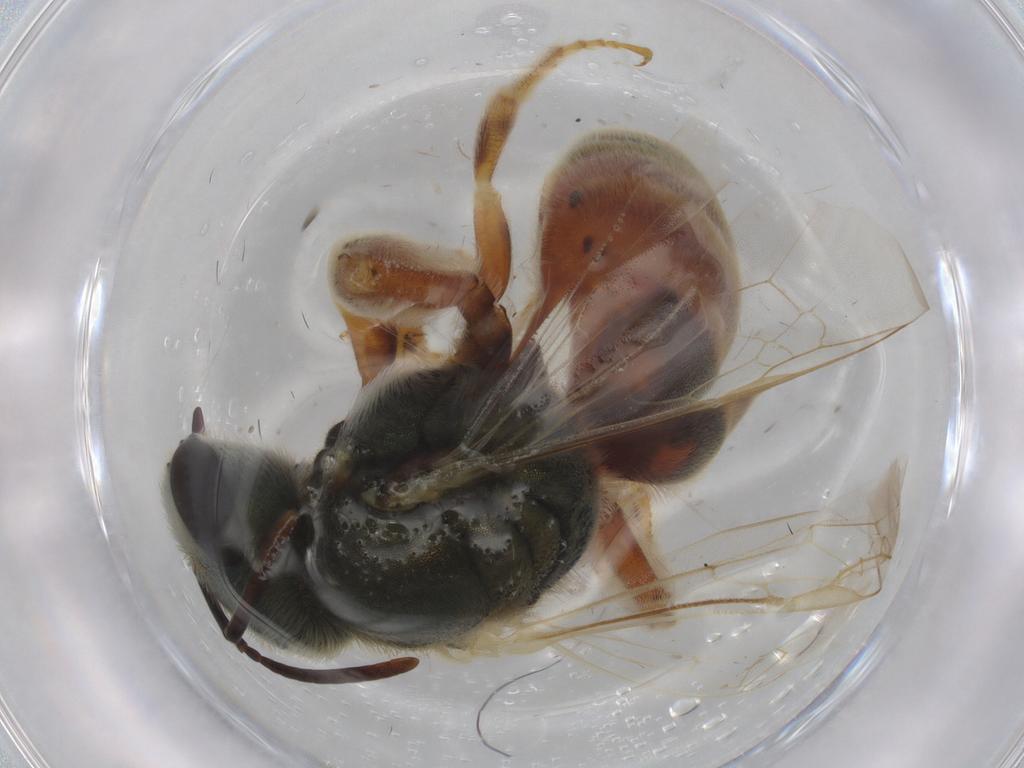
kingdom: Animalia
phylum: Arthropoda
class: Insecta
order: Hymenoptera
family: Halictidae
